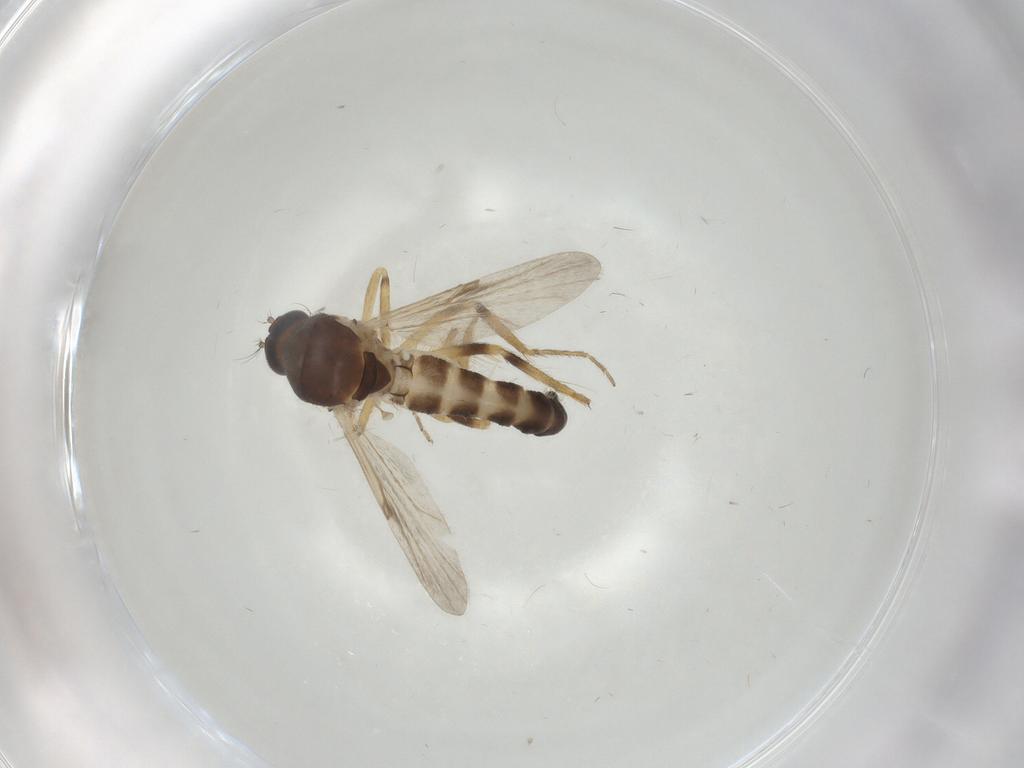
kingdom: Animalia
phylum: Arthropoda
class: Insecta
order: Diptera
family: Ceratopogonidae
